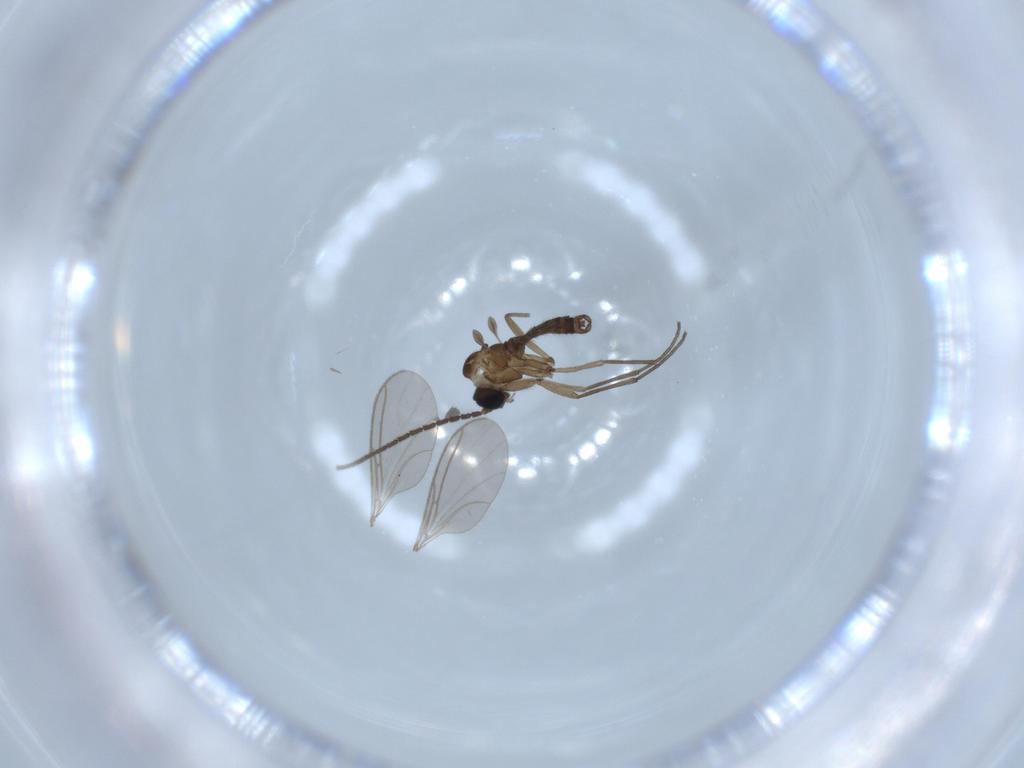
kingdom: Animalia
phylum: Arthropoda
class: Insecta
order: Diptera
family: Sciaridae
